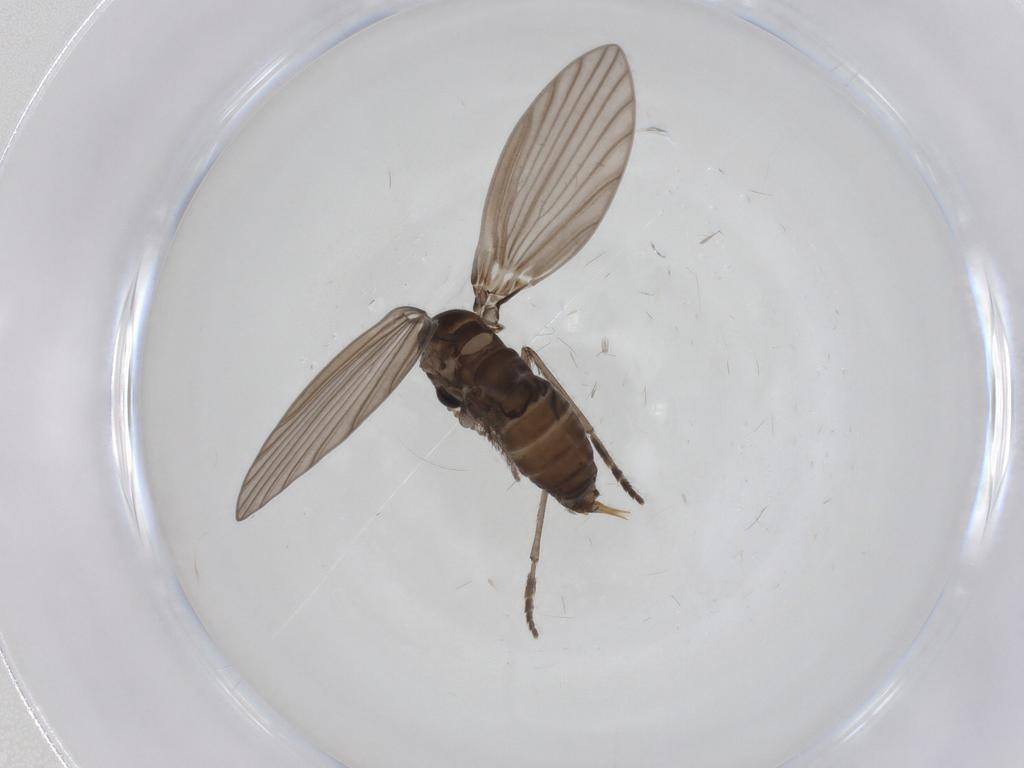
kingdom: Animalia
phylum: Arthropoda
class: Insecta
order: Diptera
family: Psychodidae
